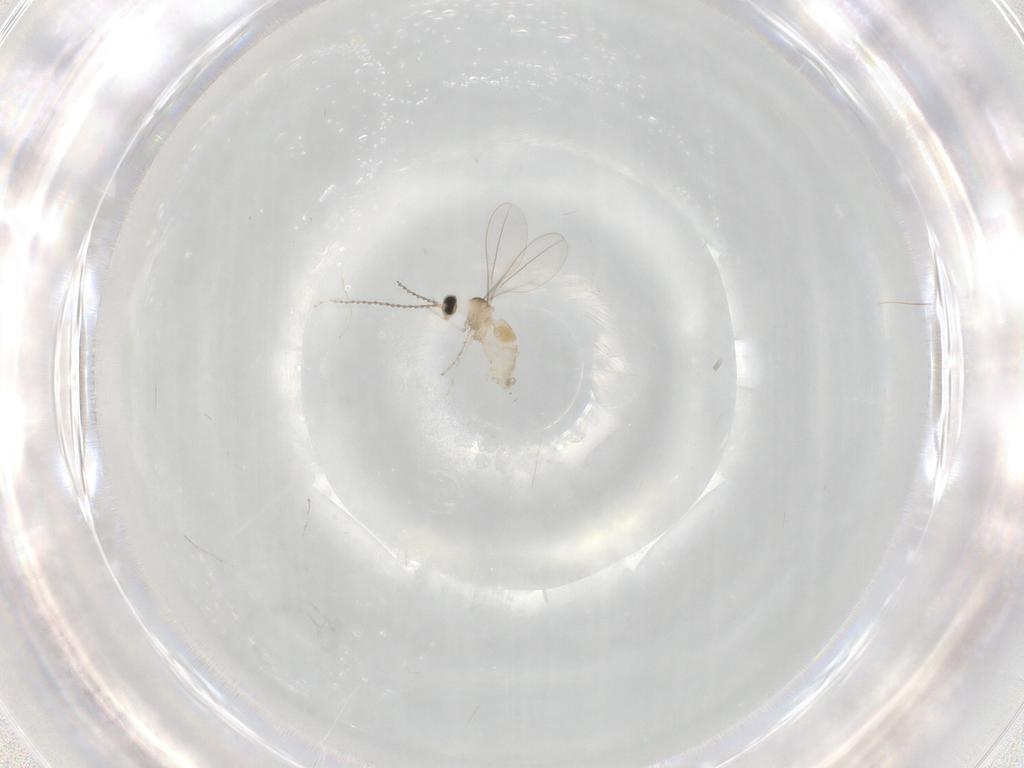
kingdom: Animalia
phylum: Arthropoda
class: Insecta
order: Diptera
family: Cecidomyiidae
